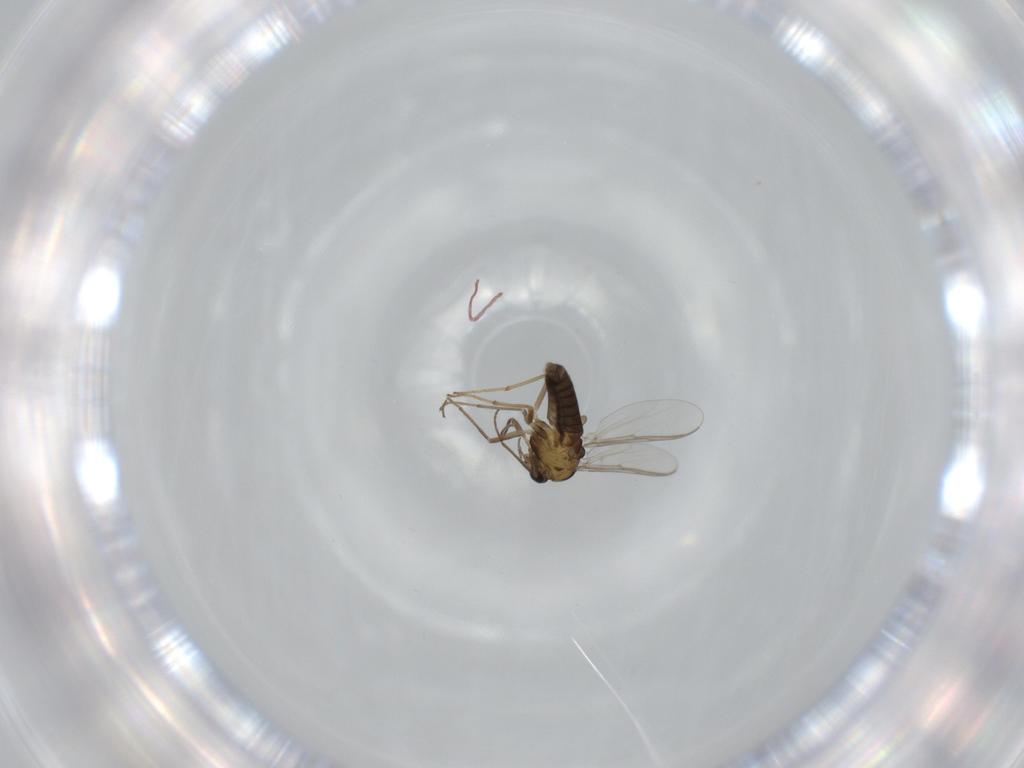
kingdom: Animalia
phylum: Arthropoda
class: Insecta
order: Diptera
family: Chironomidae
